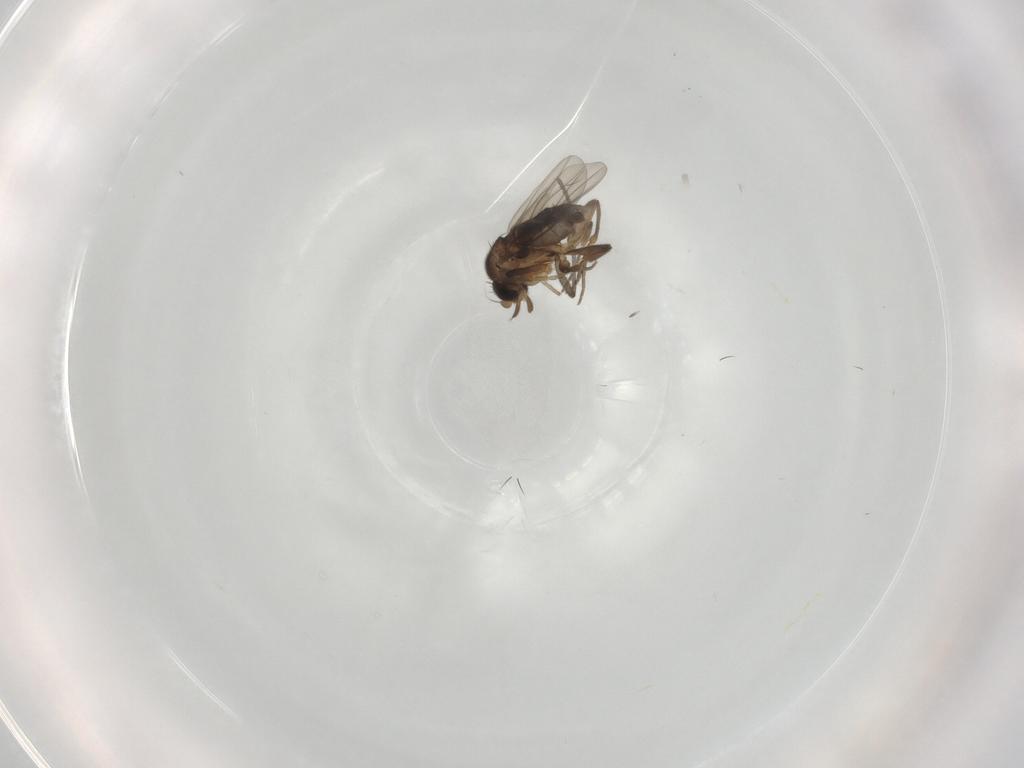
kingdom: Animalia
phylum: Arthropoda
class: Insecta
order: Diptera
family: Sciaridae
